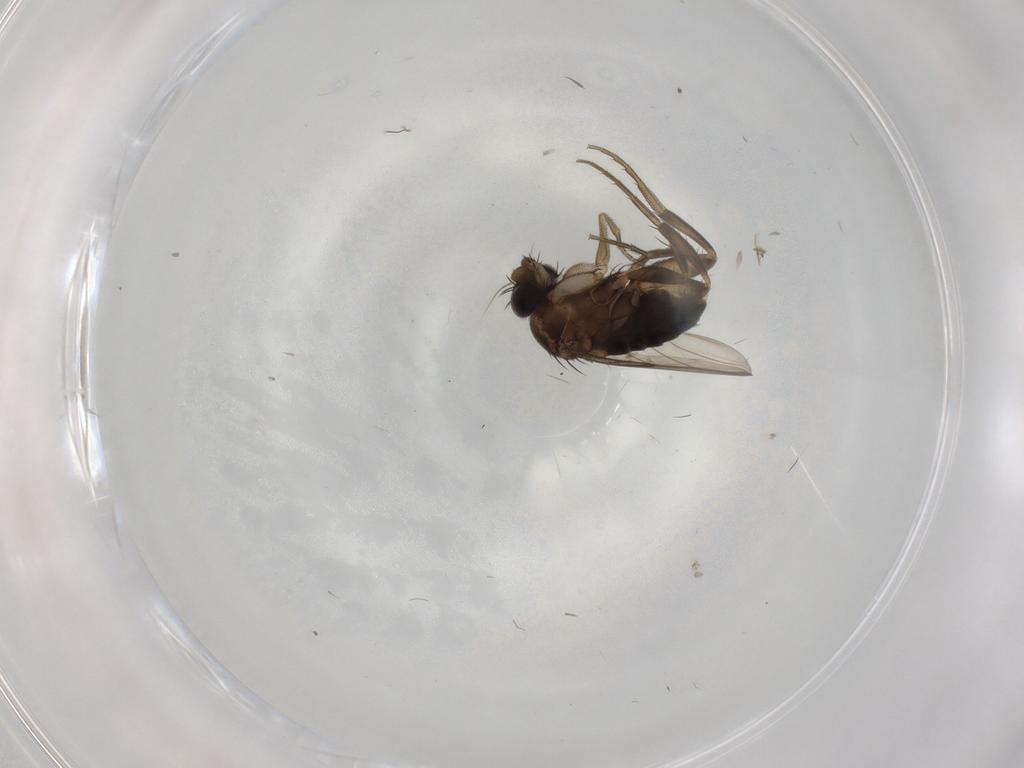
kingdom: Animalia
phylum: Arthropoda
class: Insecta
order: Diptera
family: Phoridae
